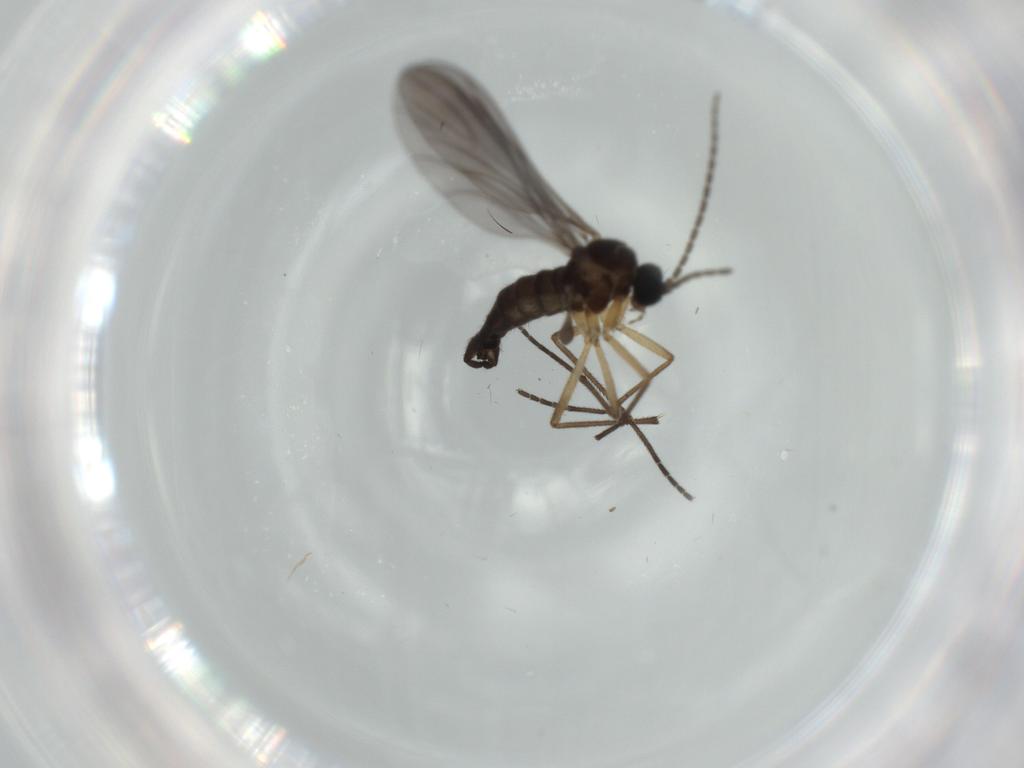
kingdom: Animalia
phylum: Arthropoda
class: Insecta
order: Diptera
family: Sciaridae
